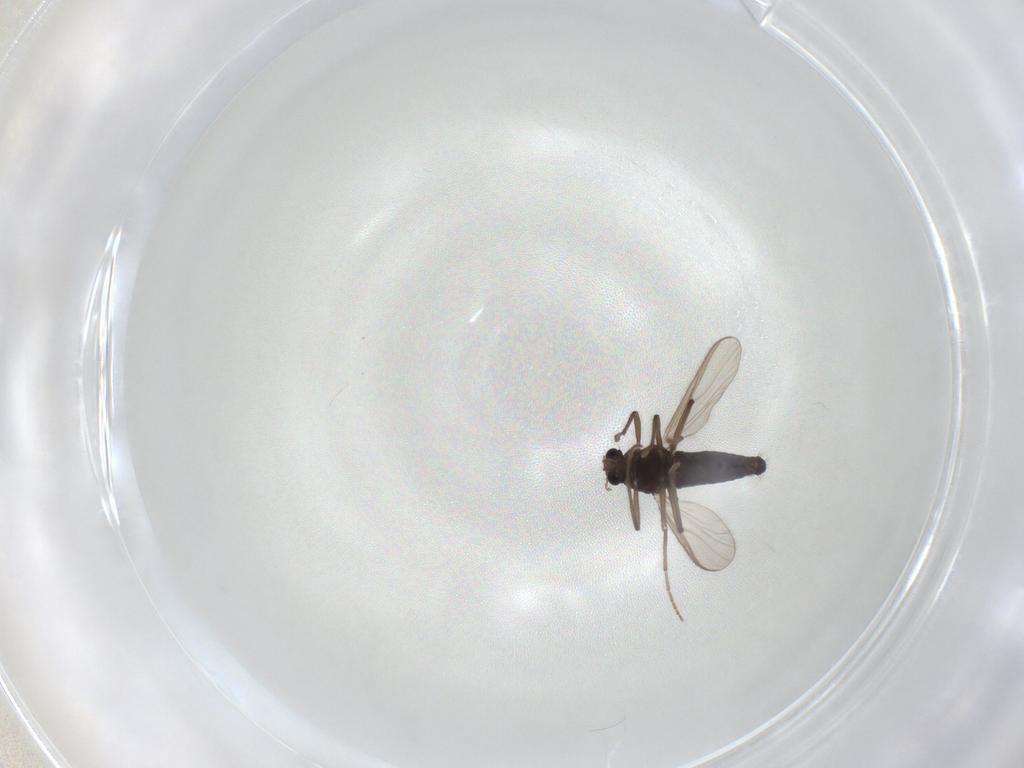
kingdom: Animalia
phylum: Arthropoda
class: Insecta
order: Diptera
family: Chironomidae
